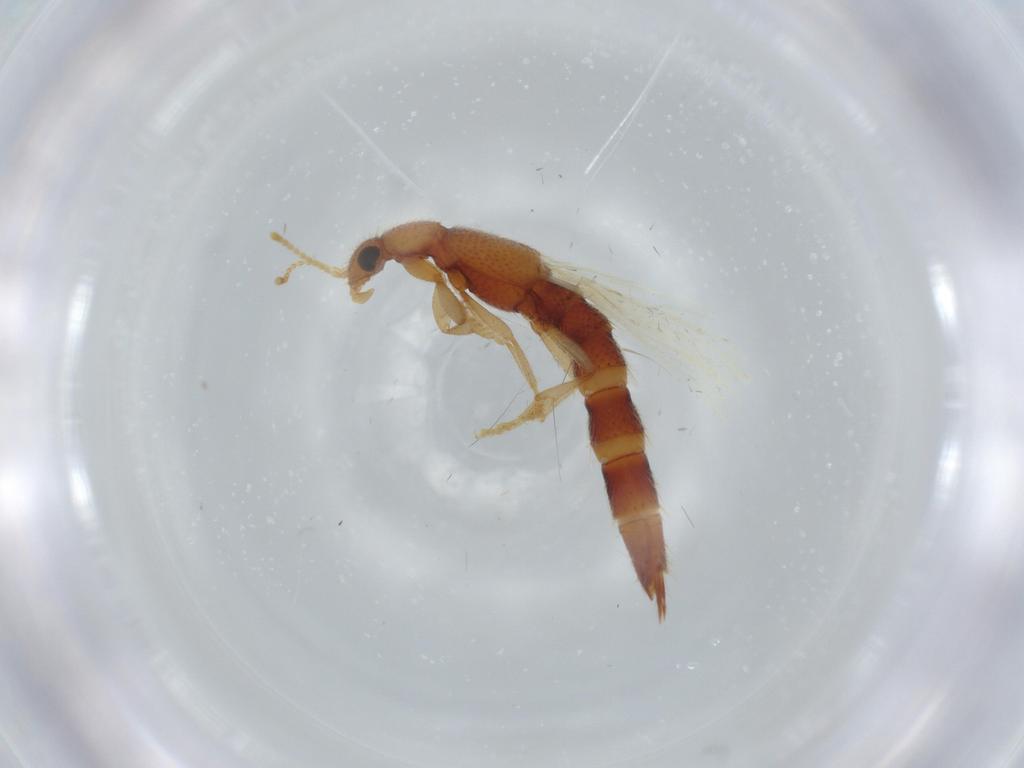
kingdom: Animalia
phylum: Arthropoda
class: Insecta
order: Coleoptera
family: Staphylinidae
